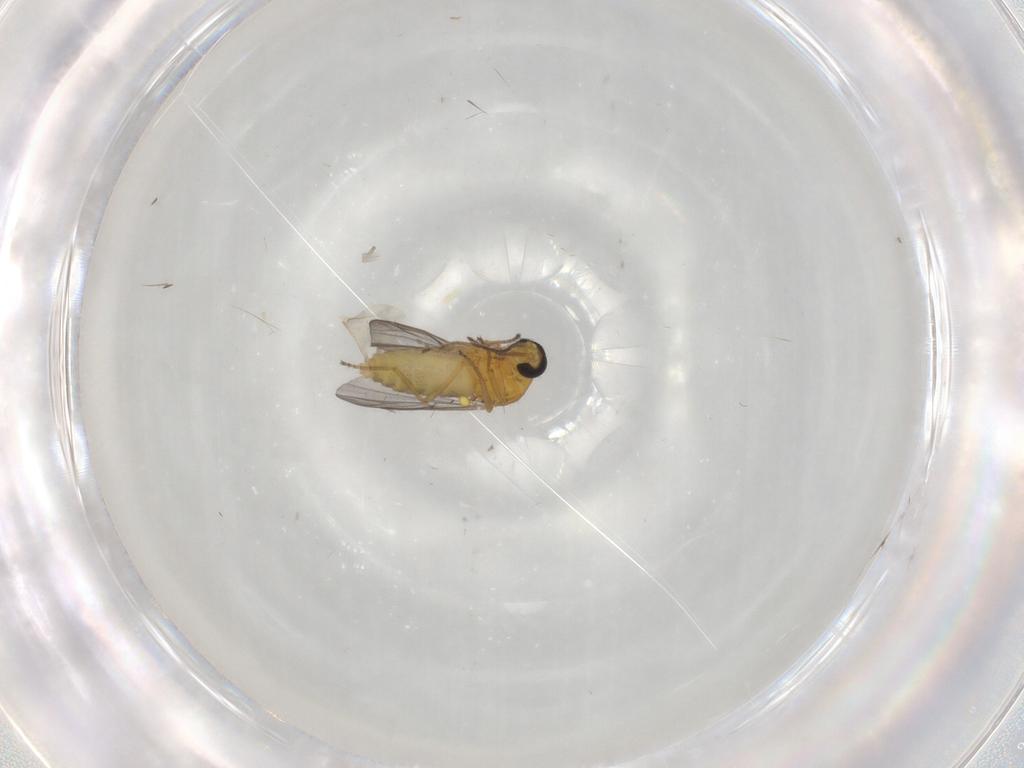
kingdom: Animalia
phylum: Arthropoda
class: Insecta
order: Diptera
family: Ceratopogonidae
